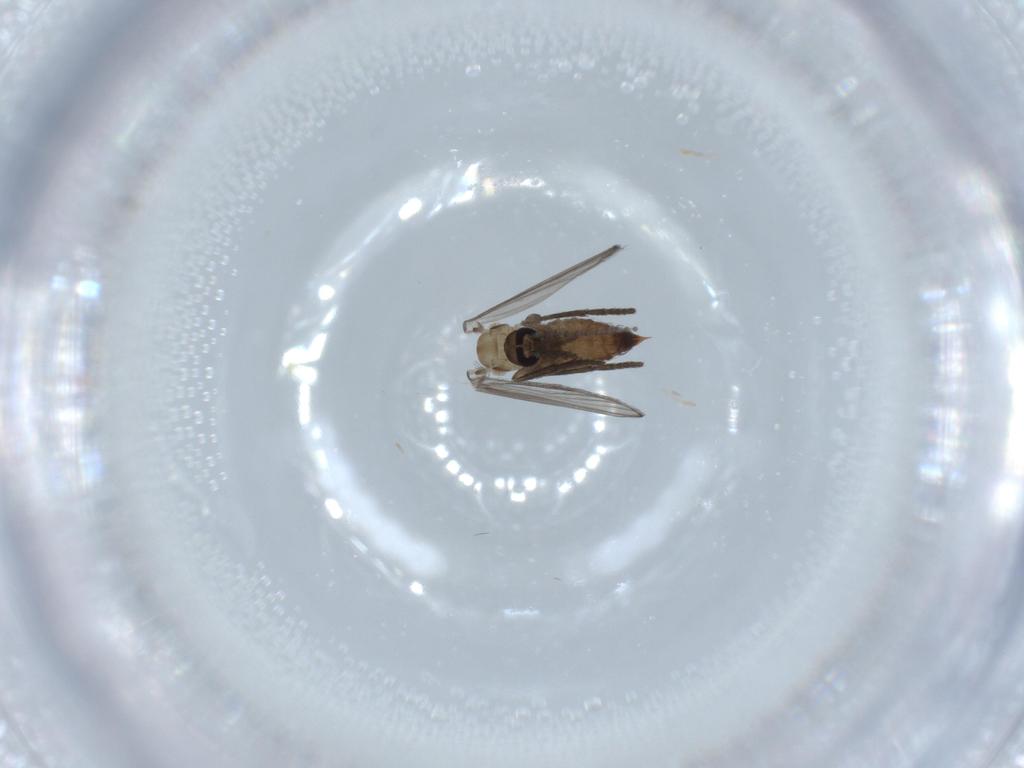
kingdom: Animalia
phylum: Arthropoda
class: Insecta
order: Diptera
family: Psychodidae
